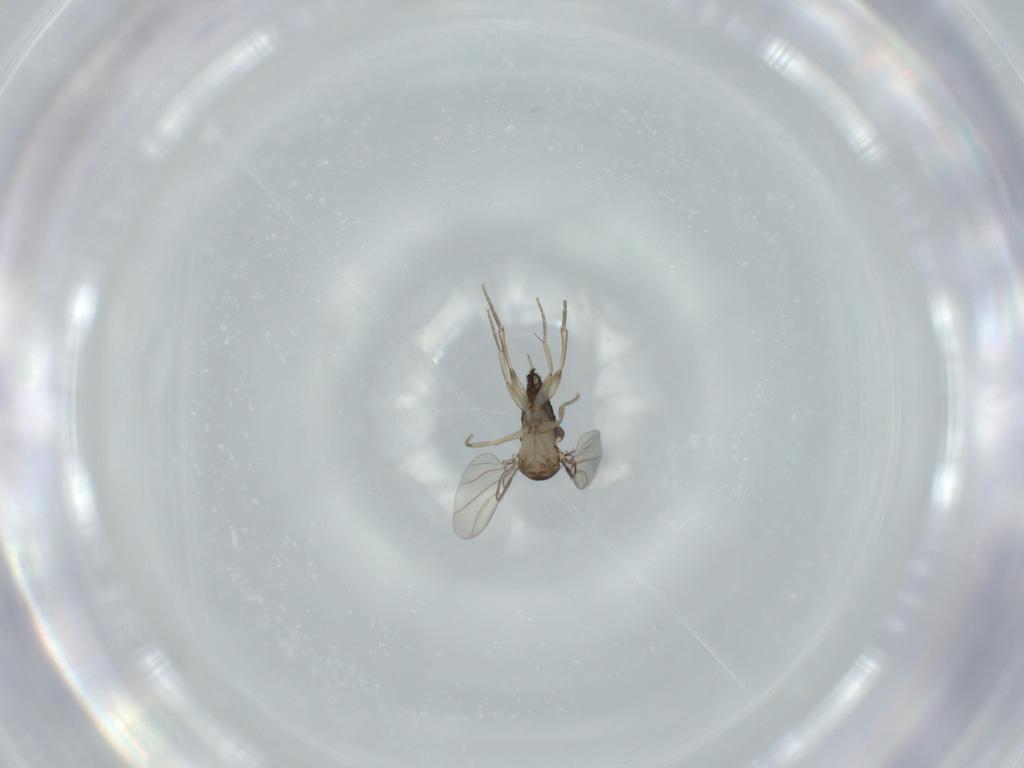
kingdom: Animalia
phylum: Arthropoda
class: Insecta
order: Diptera
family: Phoridae
